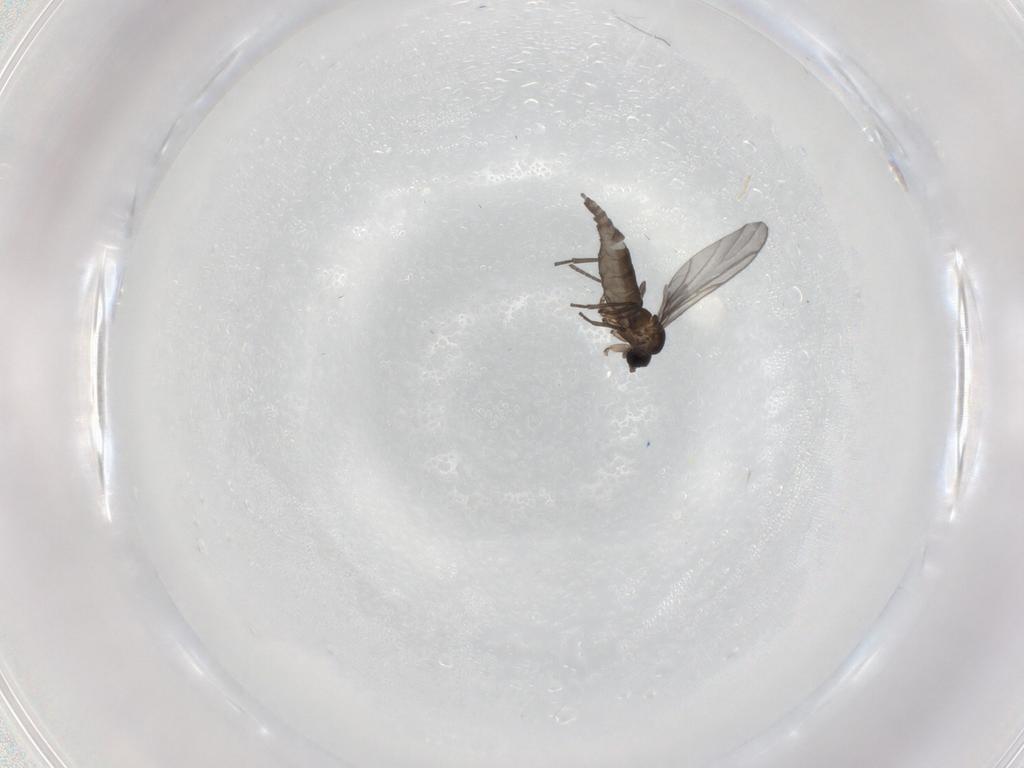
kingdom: Animalia
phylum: Arthropoda
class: Insecta
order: Diptera
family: Sciaridae
